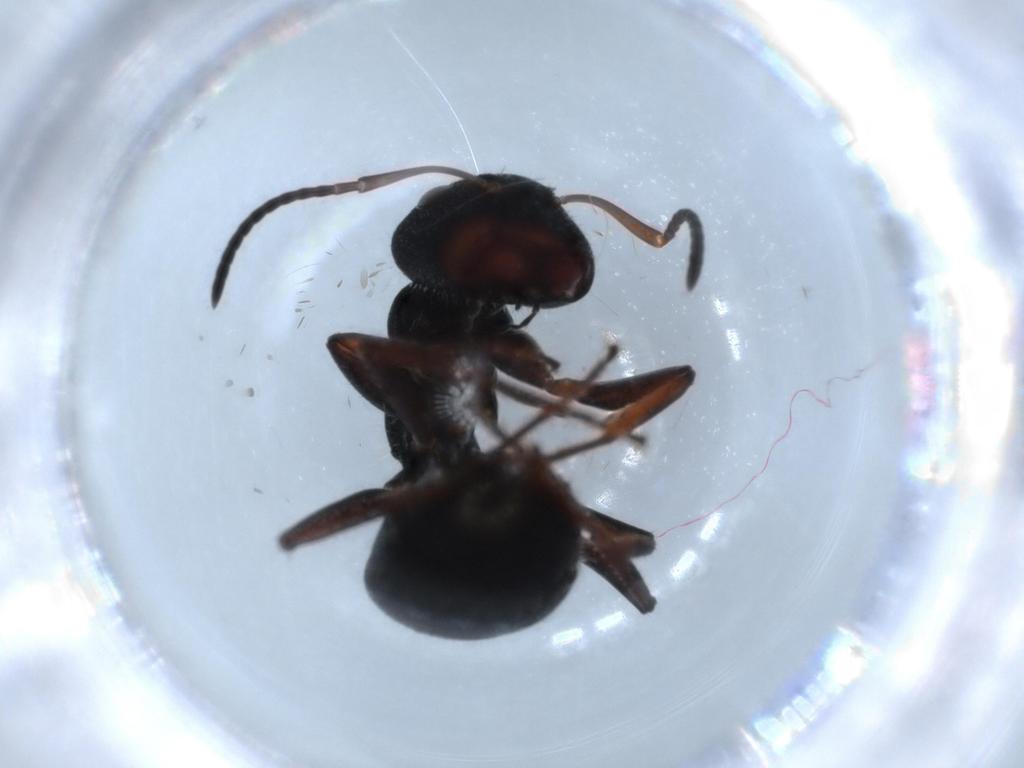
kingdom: Animalia
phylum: Arthropoda
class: Insecta
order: Hymenoptera
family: Formicidae
